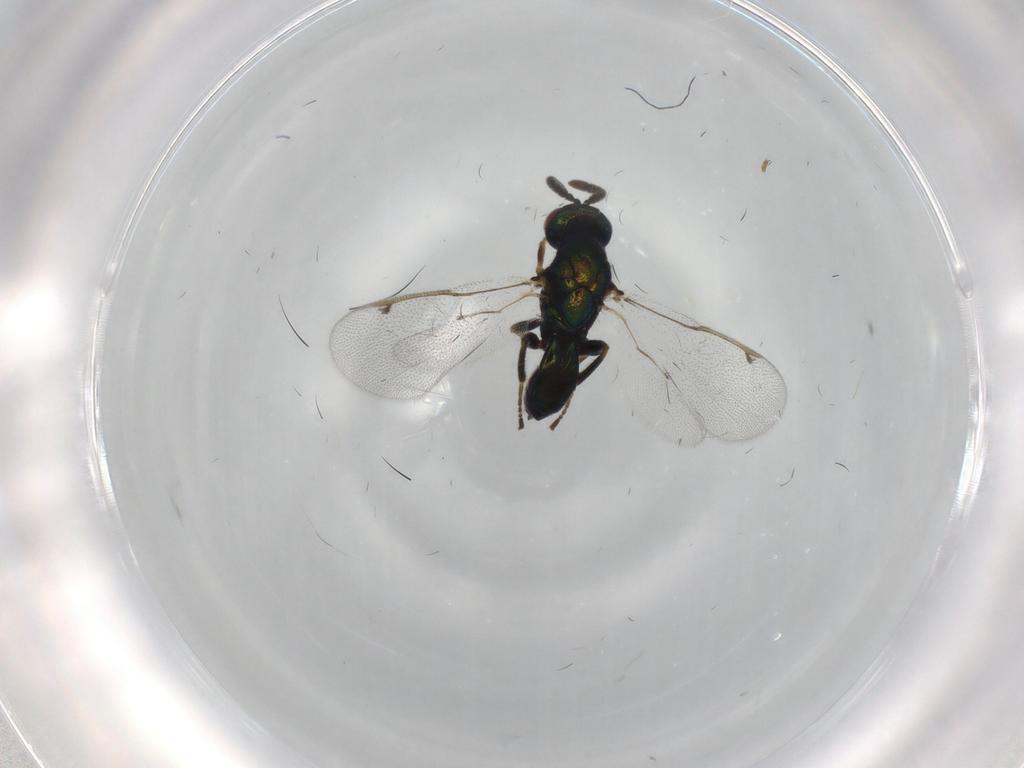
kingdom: Animalia
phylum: Arthropoda
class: Insecta
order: Hymenoptera
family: Torymidae
